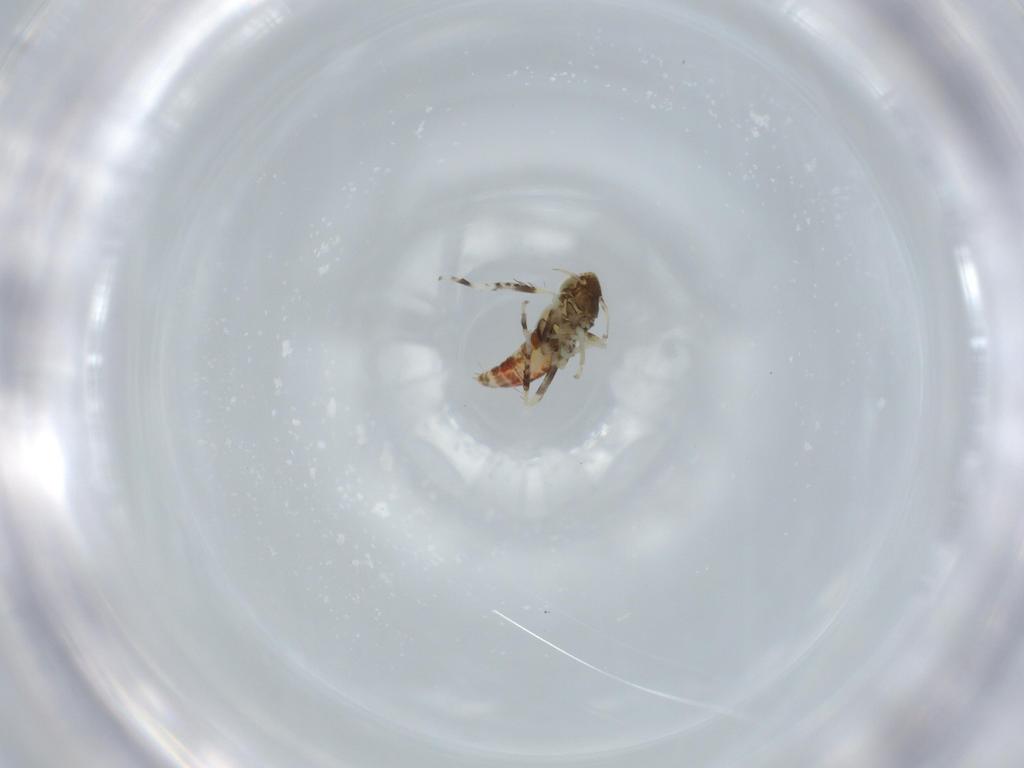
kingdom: Animalia
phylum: Arthropoda
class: Insecta
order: Hemiptera
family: Cicadellidae
